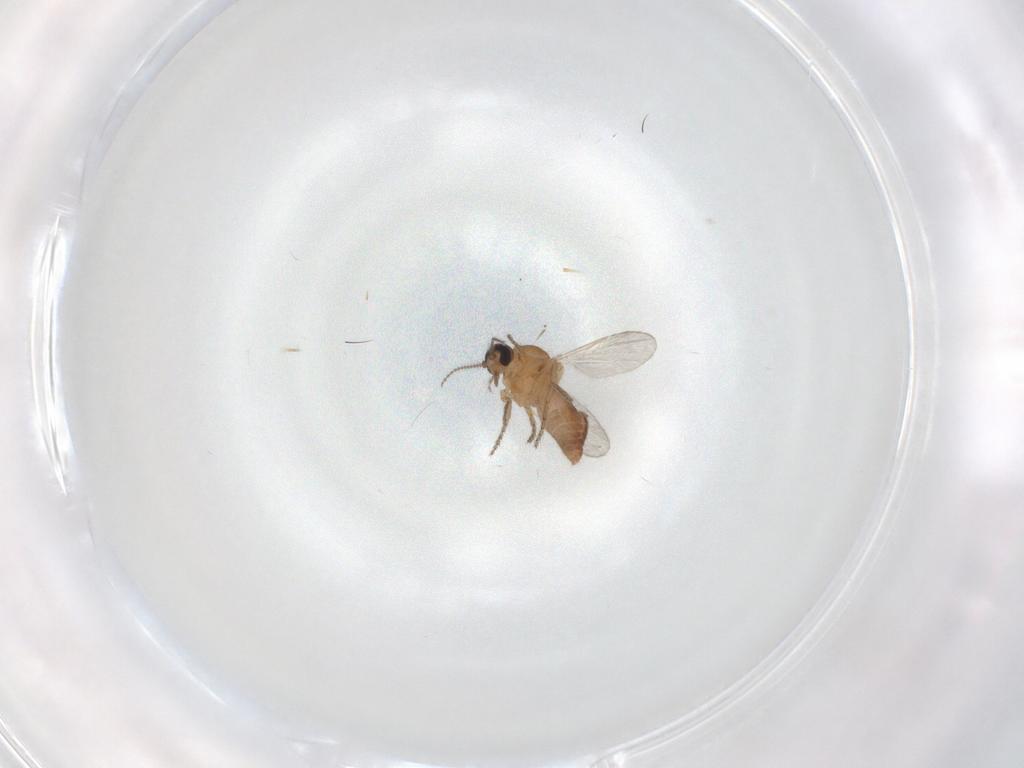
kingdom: Animalia
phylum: Arthropoda
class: Insecta
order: Diptera
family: Ceratopogonidae
